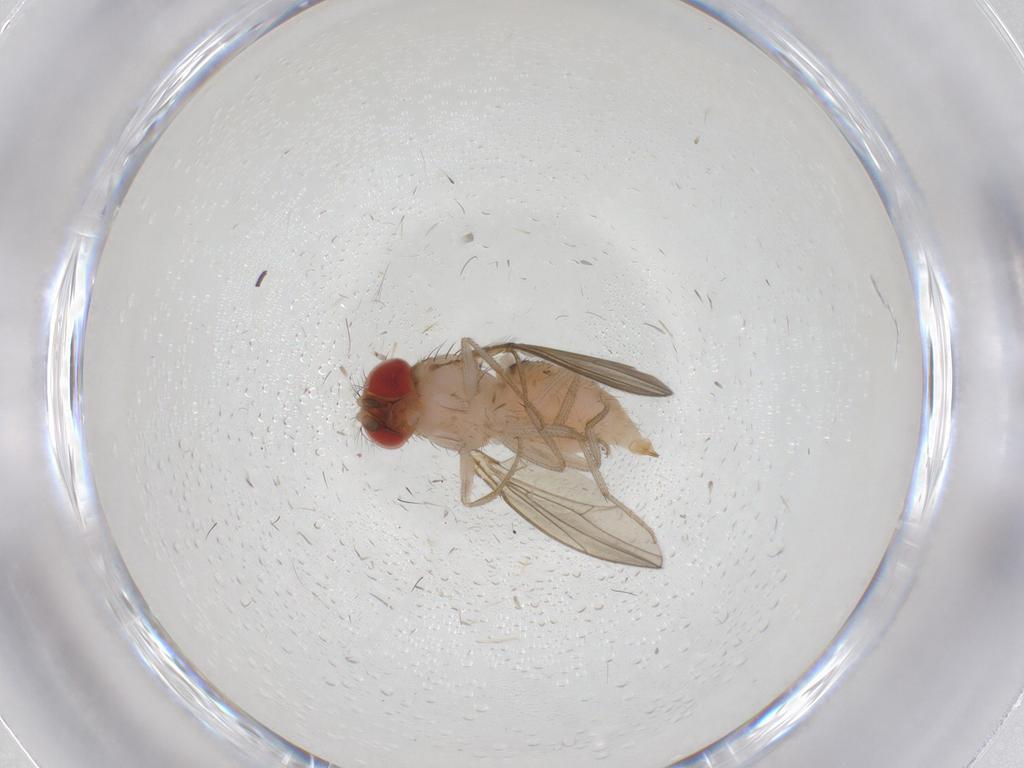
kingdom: Animalia
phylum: Arthropoda
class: Insecta
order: Diptera
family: Drosophilidae
